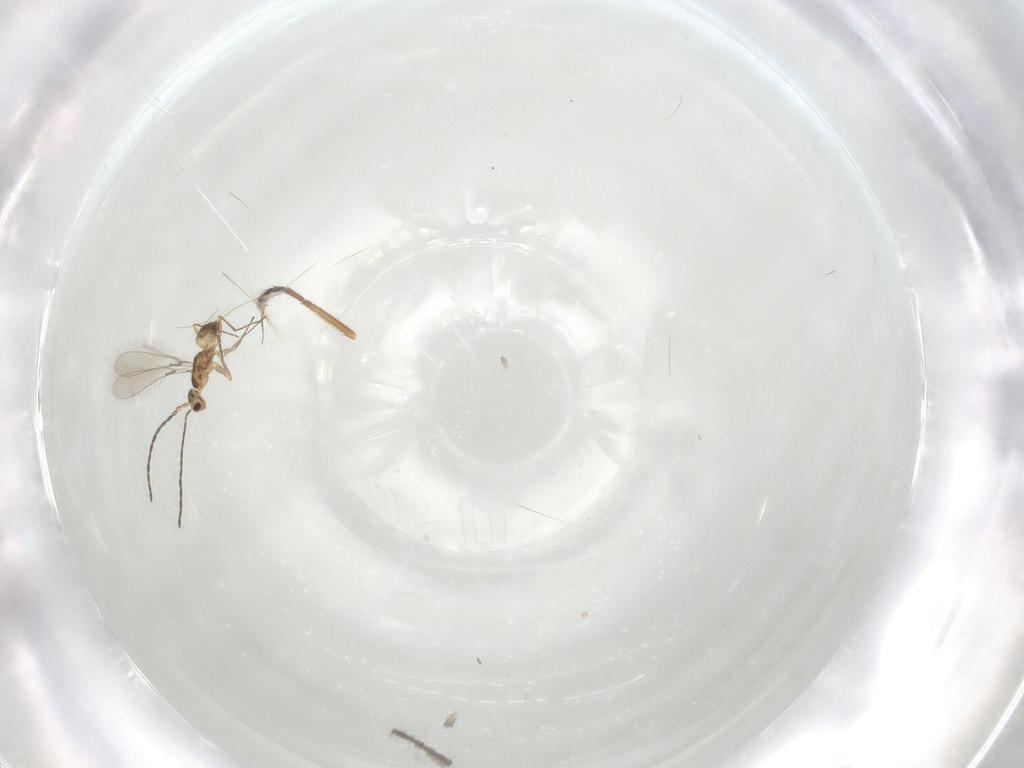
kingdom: Animalia
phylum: Arthropoda
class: Insecta
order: Hymenoptera
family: Mymaridae
